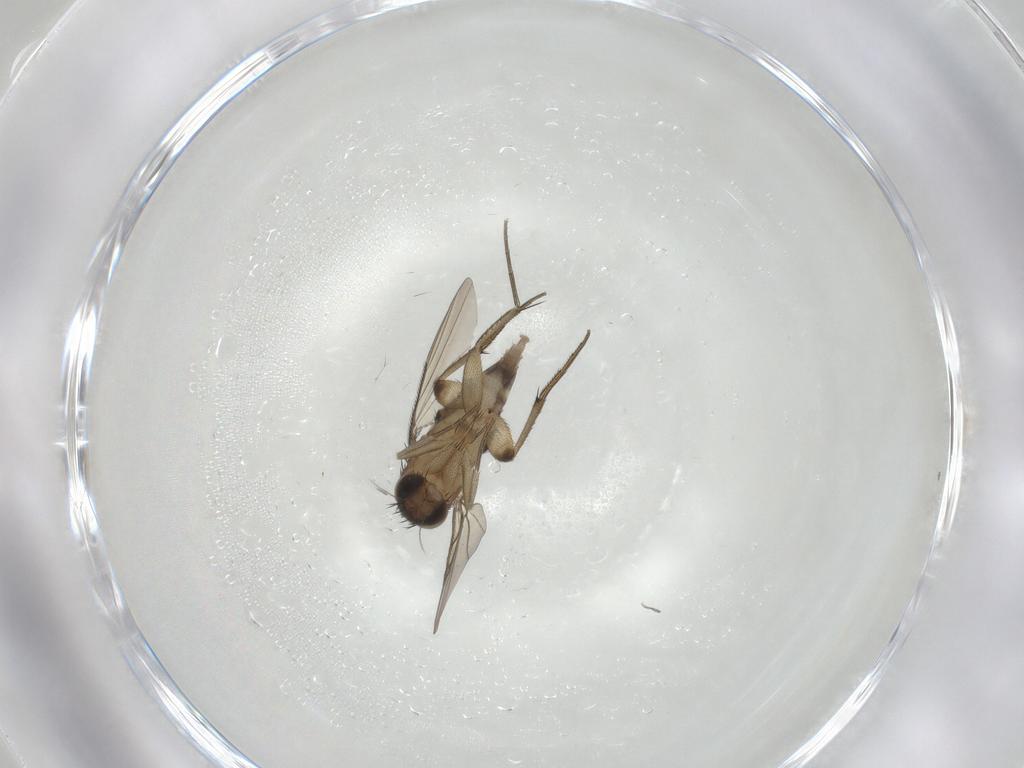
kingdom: Animalia
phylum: Arthropoda
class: Insecta
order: Diptera
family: Phoridae
